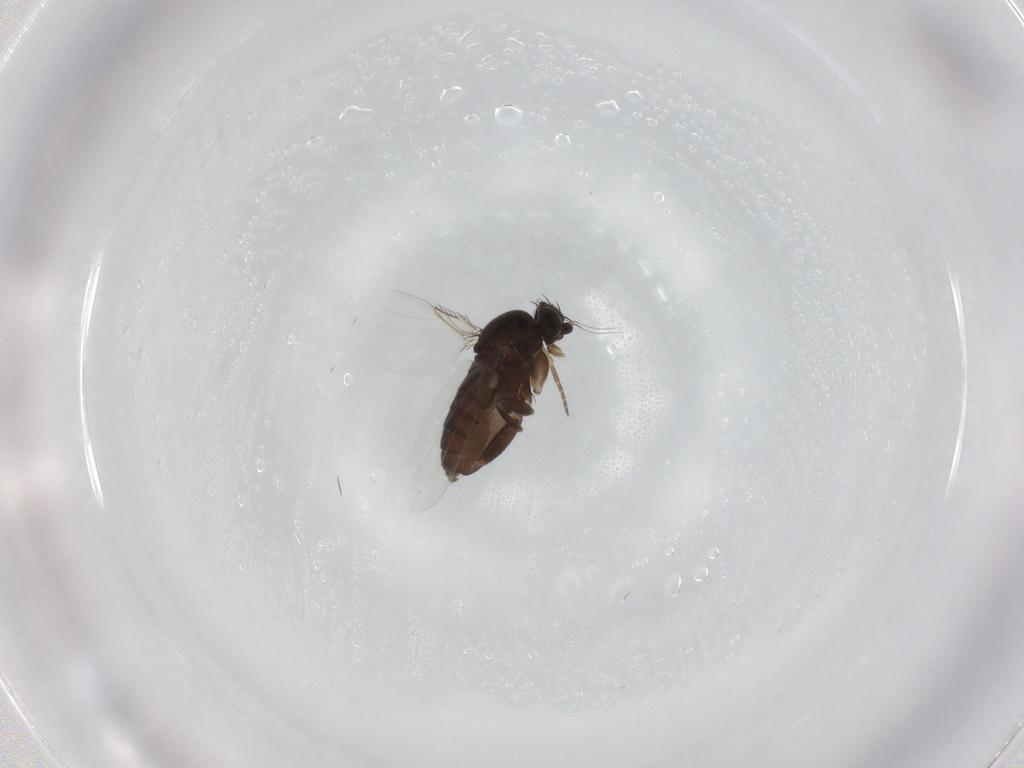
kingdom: Animalia
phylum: Arthropoda
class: Insecta
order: Diptera
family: Phoridae
